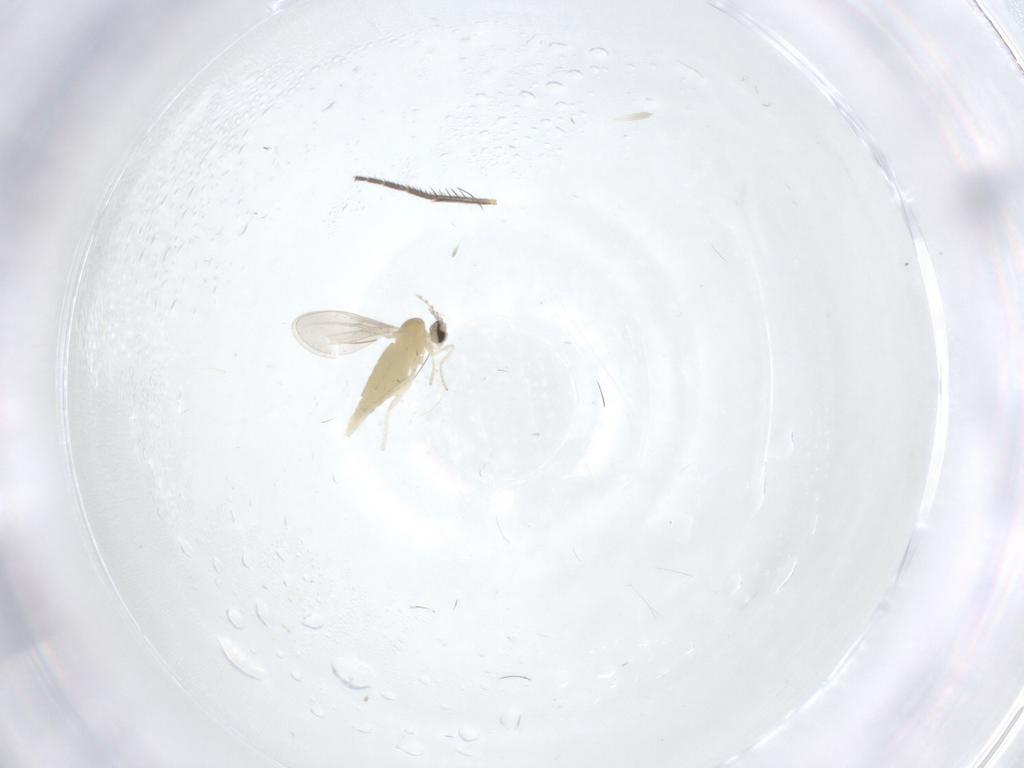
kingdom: Animalia
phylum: Arthropoda
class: Insecta
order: Diptera
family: Cecidomyiidae
